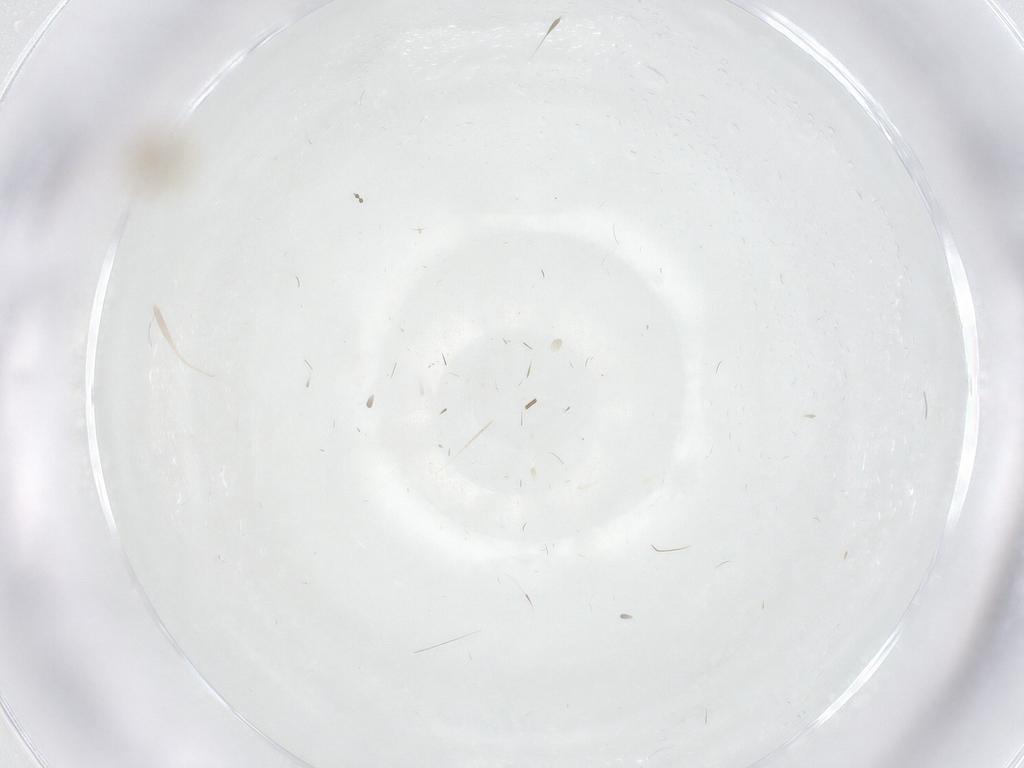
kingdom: Animalia
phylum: Arthropoda
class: Insecta
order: Diptera
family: Cecidomyiidae
